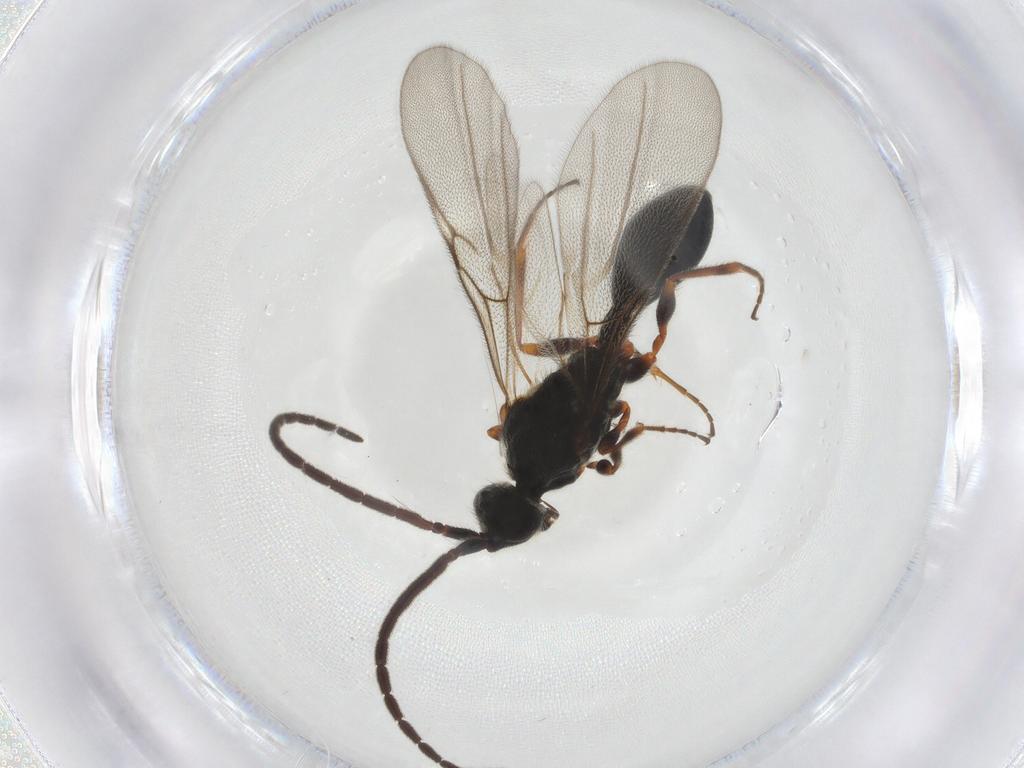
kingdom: Animalia
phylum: Arthropoda
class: Insecta
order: Hymenoptera
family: Diapriidae
